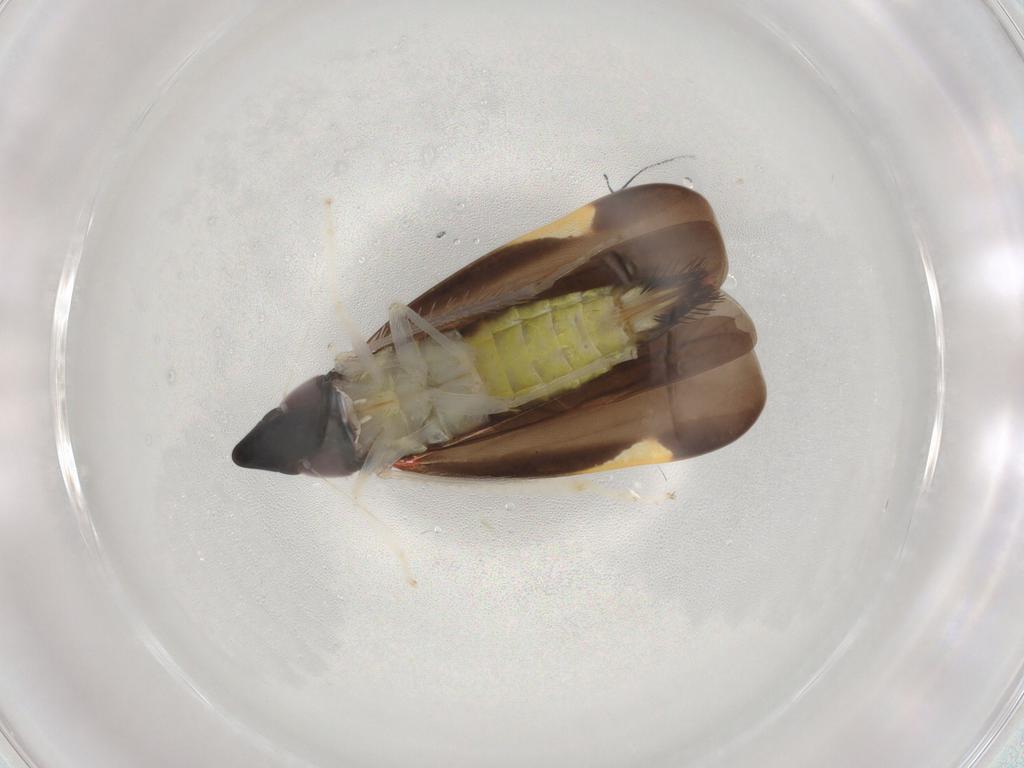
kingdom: Animalia
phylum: Arthropoda
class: Insecta
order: Hemiptera
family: Cicadellidae
